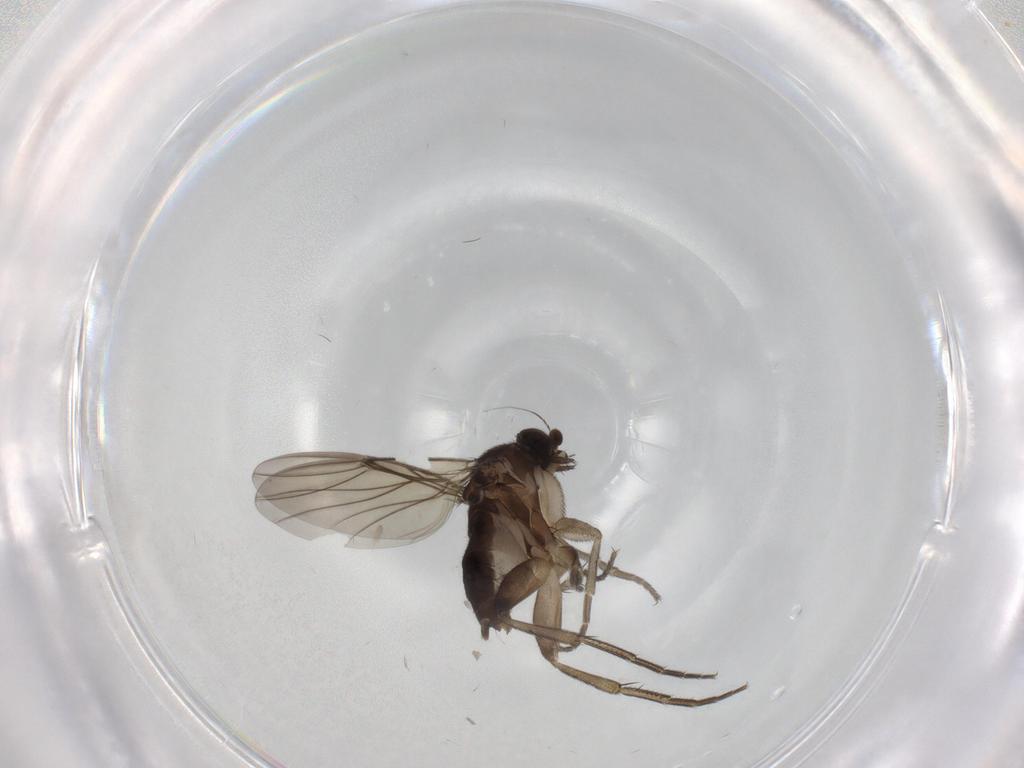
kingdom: Animalia
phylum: Arthropoda
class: Insecta
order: Diptera
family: Phoridae
